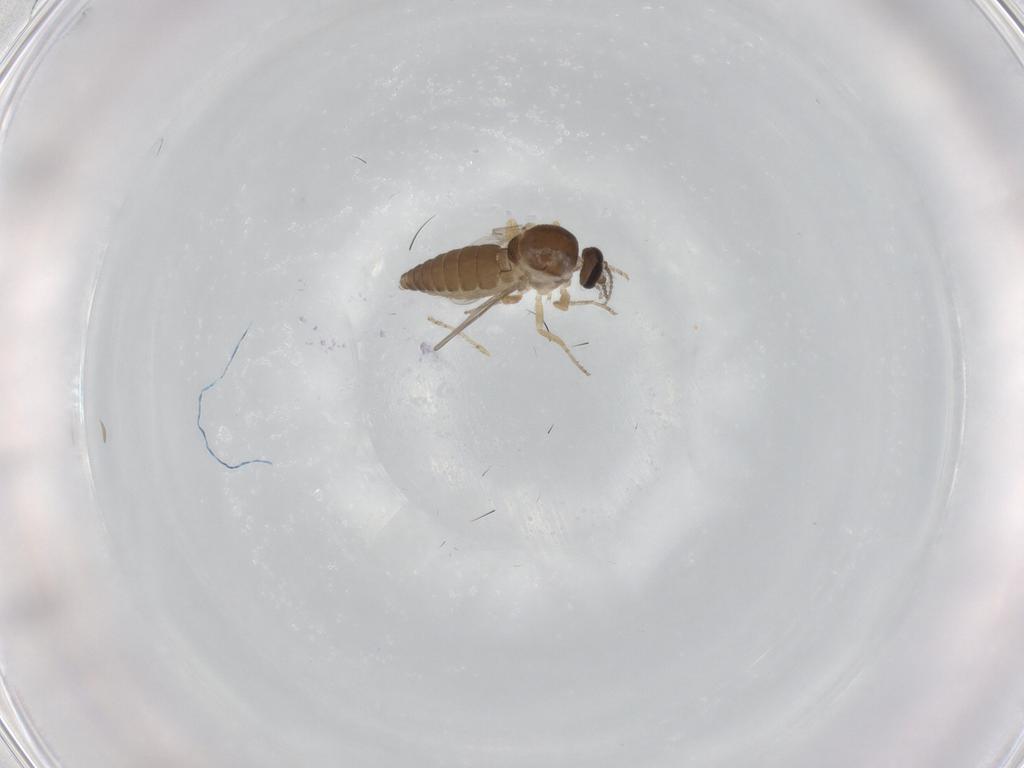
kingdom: Animalia
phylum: Arthropoda
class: Insecta
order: Diptera
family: Ceratopogonidae
